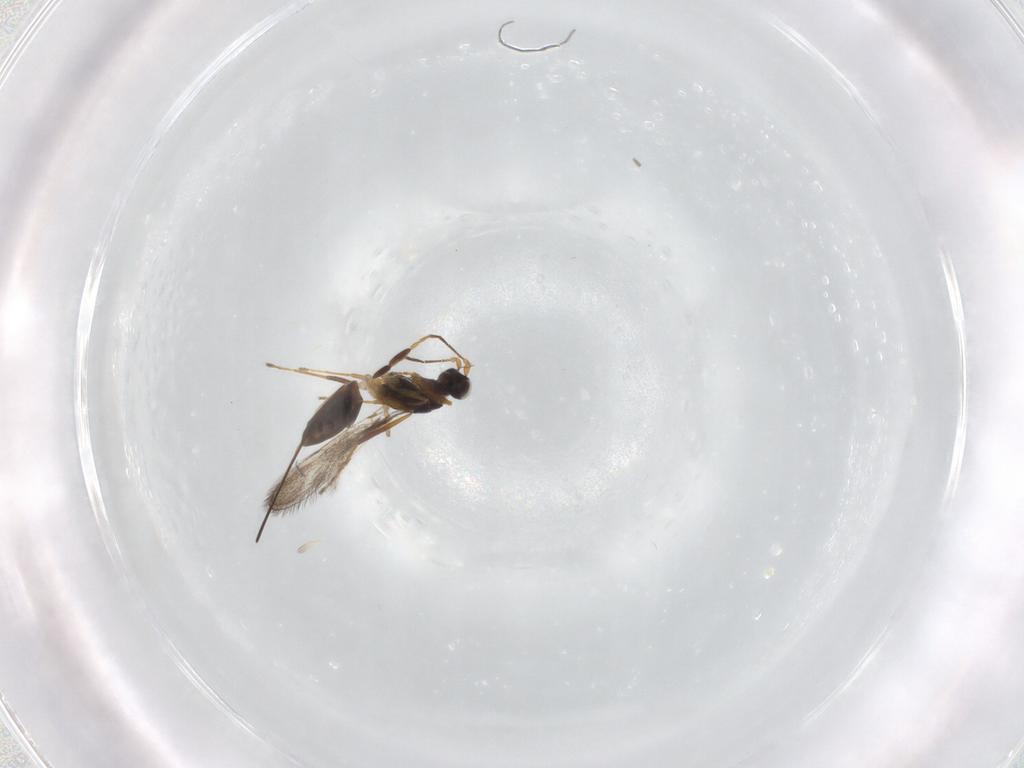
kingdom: Animalia
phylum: Arthropoda
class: Insecta
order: Hymenoptera
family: Mymaridae
